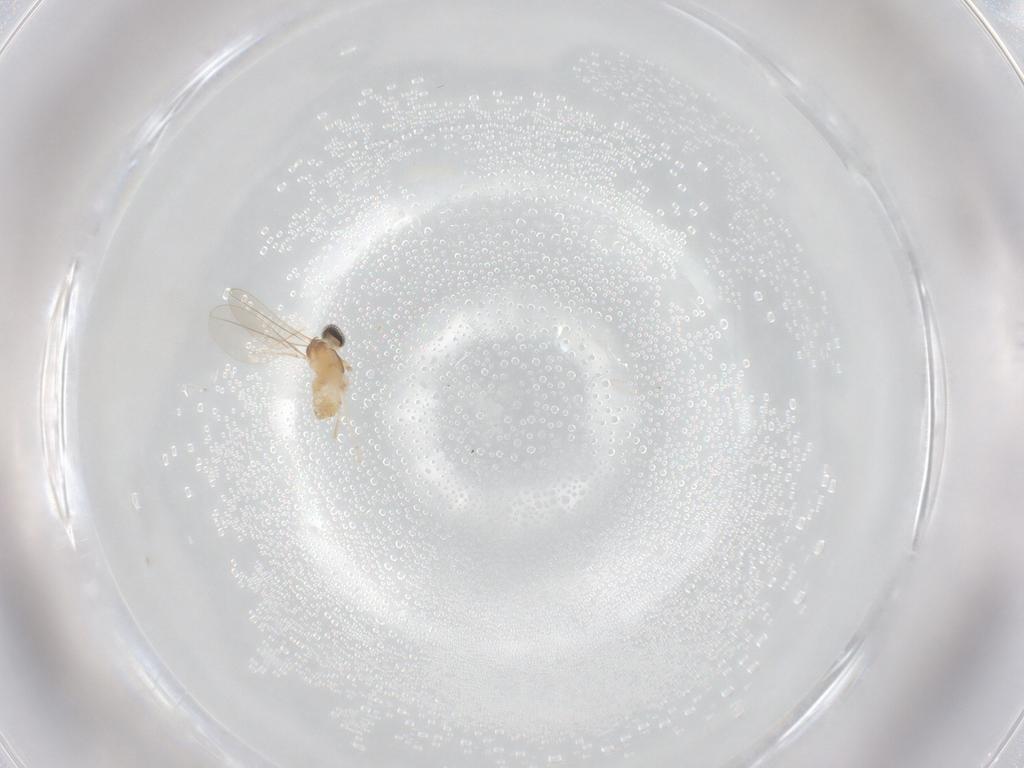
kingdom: Animalia
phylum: Arthropoda
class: Insecta
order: Diptera
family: Cecidomyiidae
